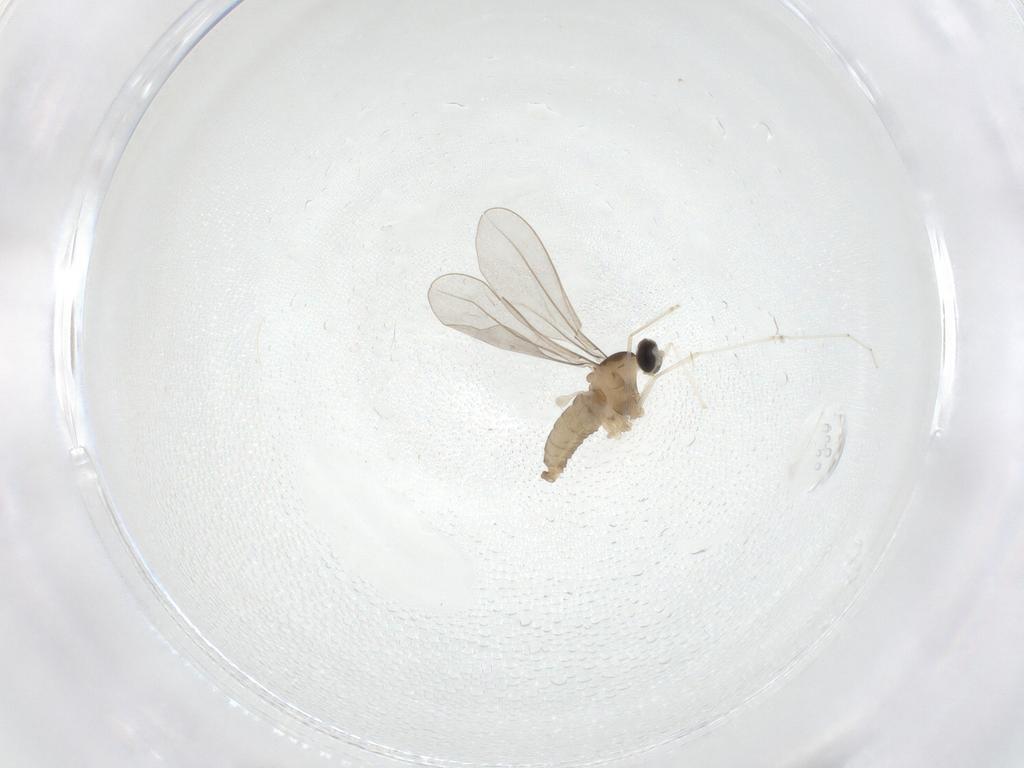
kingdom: Animalia
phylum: Arthropoda
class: Insecta
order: Diptera
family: Cecidomyiidae
